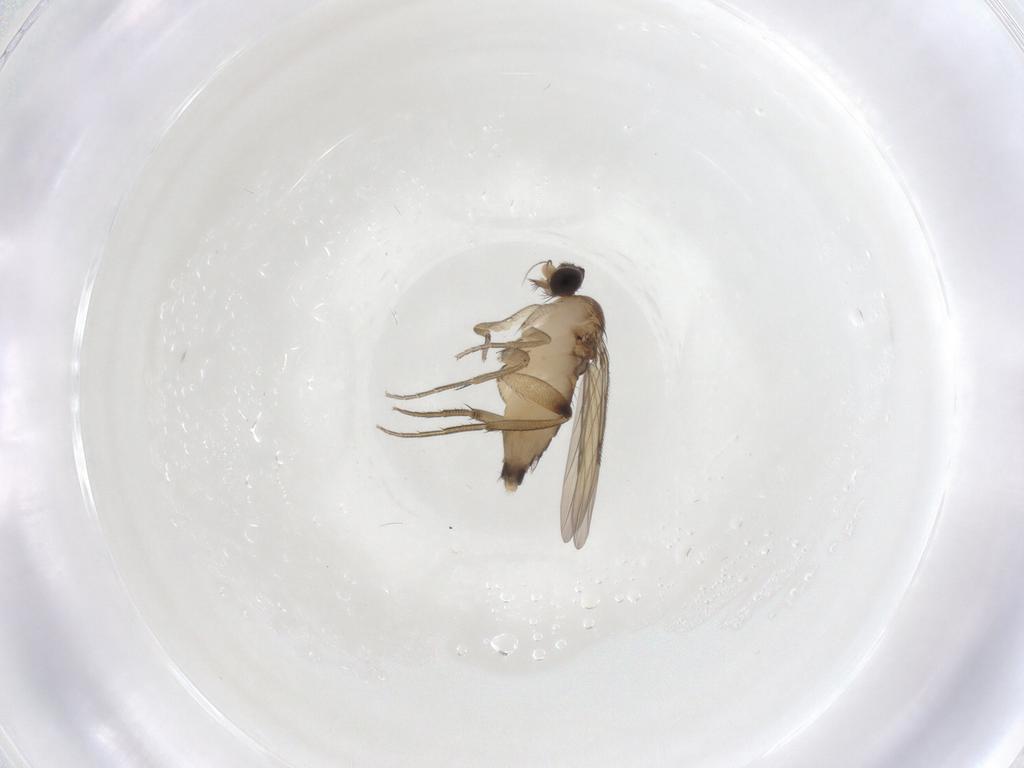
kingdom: Animalia
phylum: Arthropoda
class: Insecta
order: Diptera
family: Phoridae
